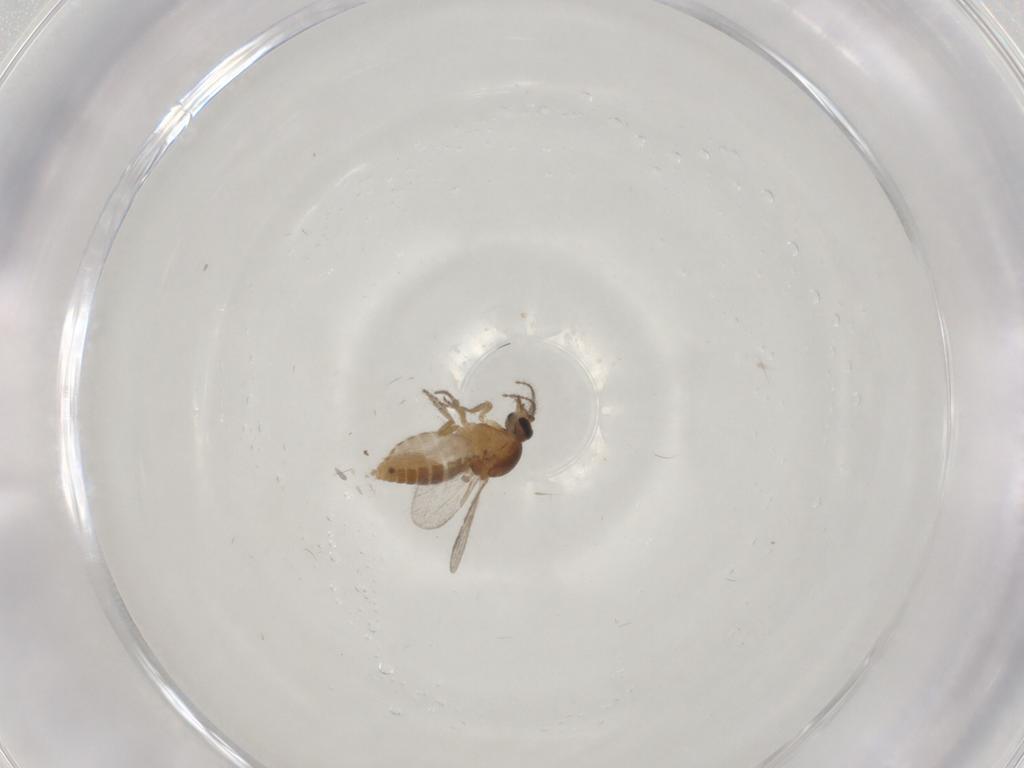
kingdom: Animalia
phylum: Arthropoda
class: Insecta
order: Diptera
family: Ceratopogonidae
